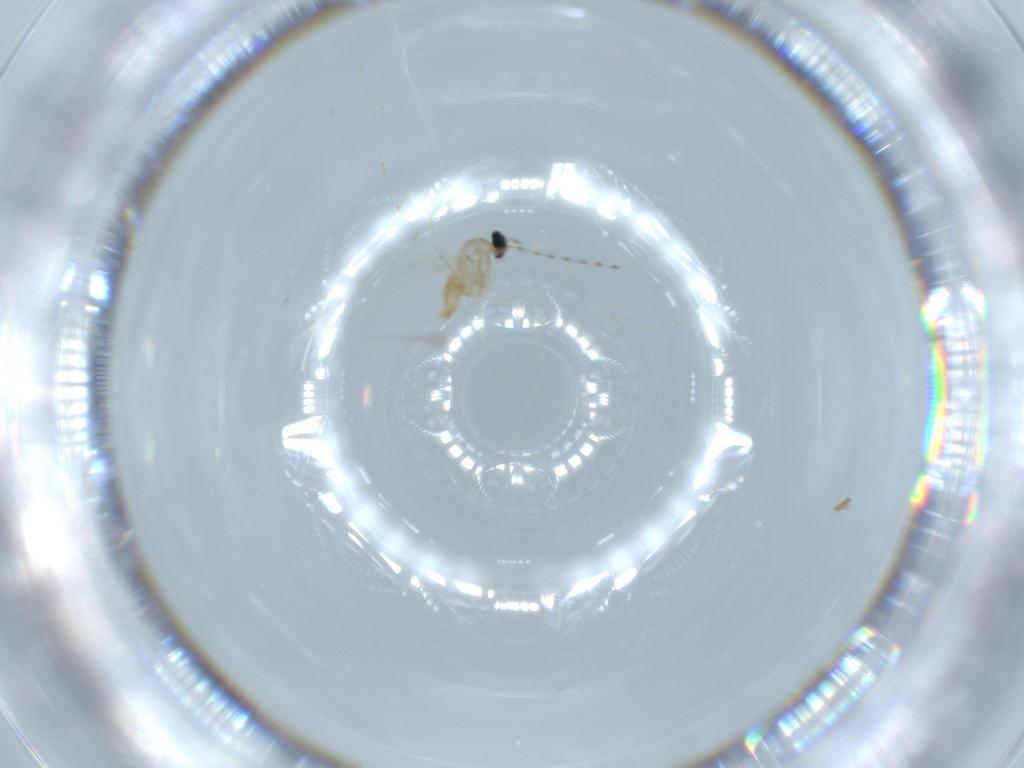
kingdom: Animalia
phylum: Arthropoda
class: Insecta
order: Diptera
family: Cecidomyiidae
